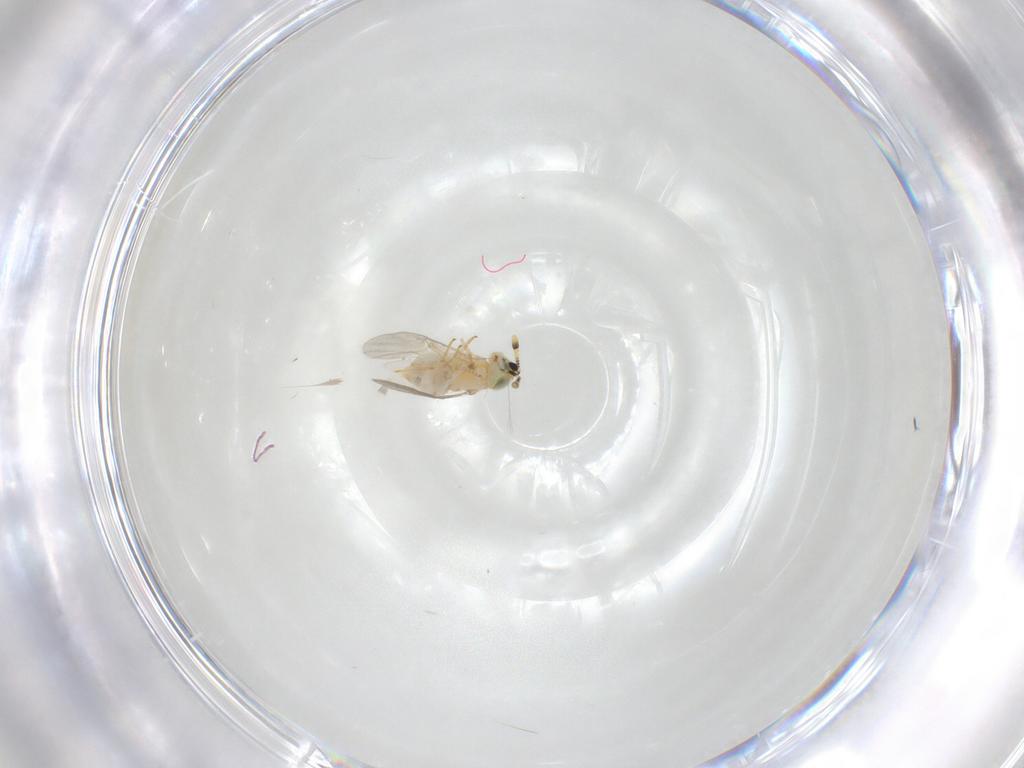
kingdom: Animalia
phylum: Arthropoda
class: Insecta
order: Hymenoptera
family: Encyrtidae
